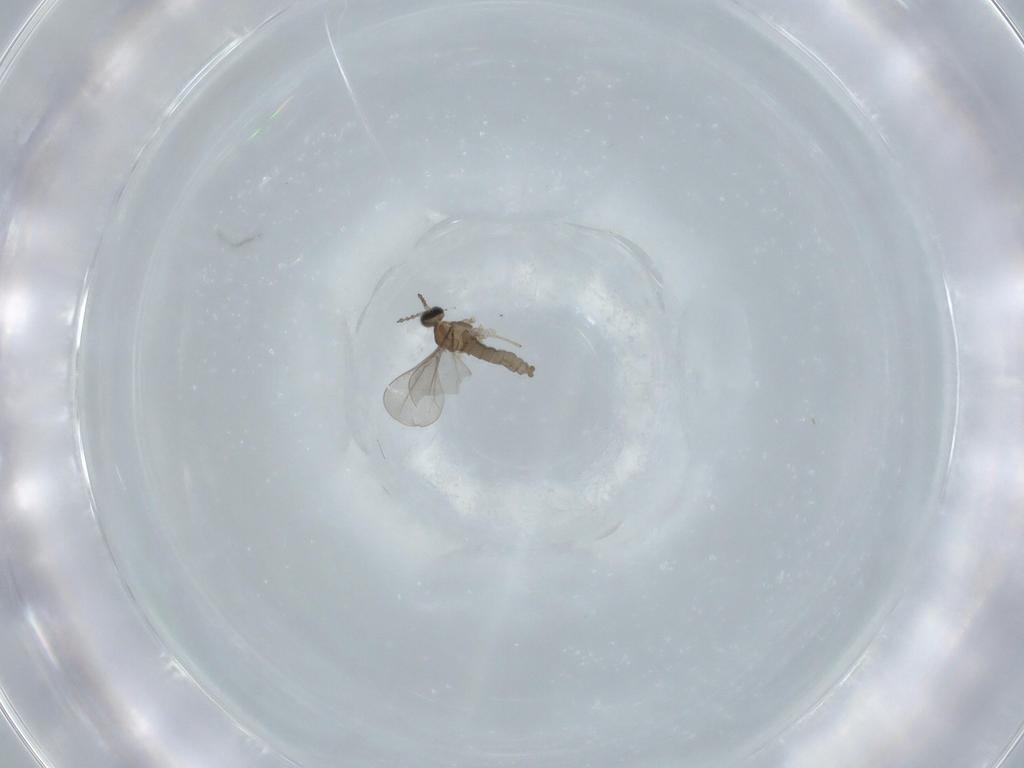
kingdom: Animalia
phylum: Arthropoda
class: Insecta
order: Diptera
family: Cecidomyiidae
